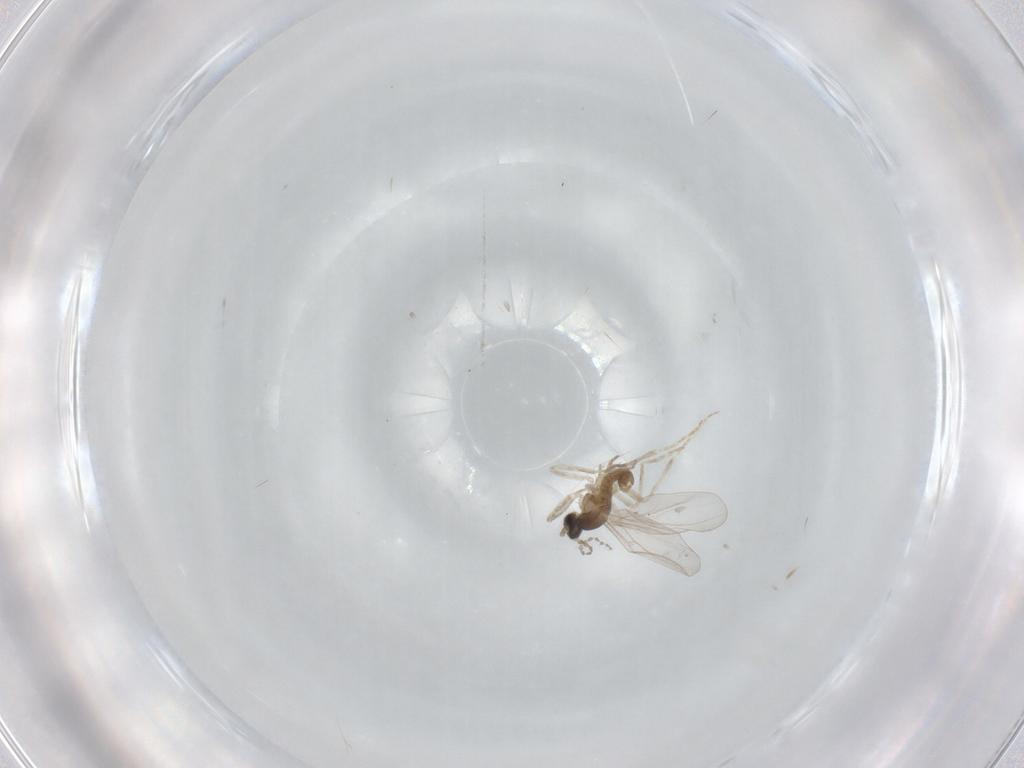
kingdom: Animalia
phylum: Arthropoda
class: Insecta
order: Diptera
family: Cecidomyiidae
